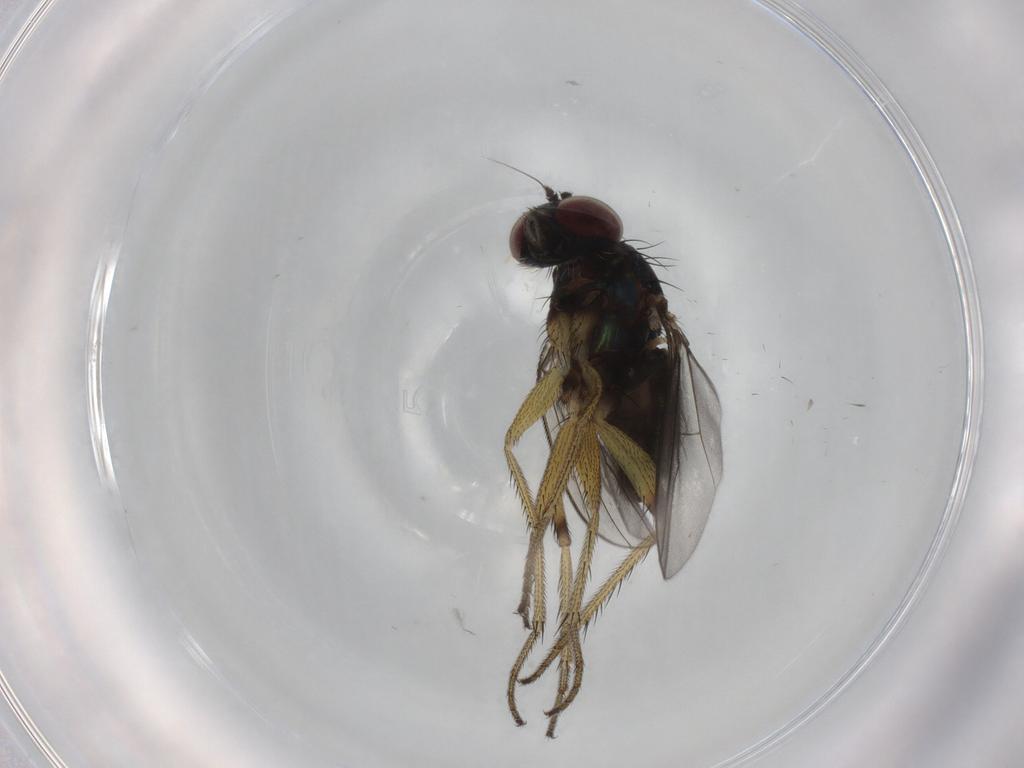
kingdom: Animalia
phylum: Arthropoda
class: Insecta
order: Diptera
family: Dolichopodidae
